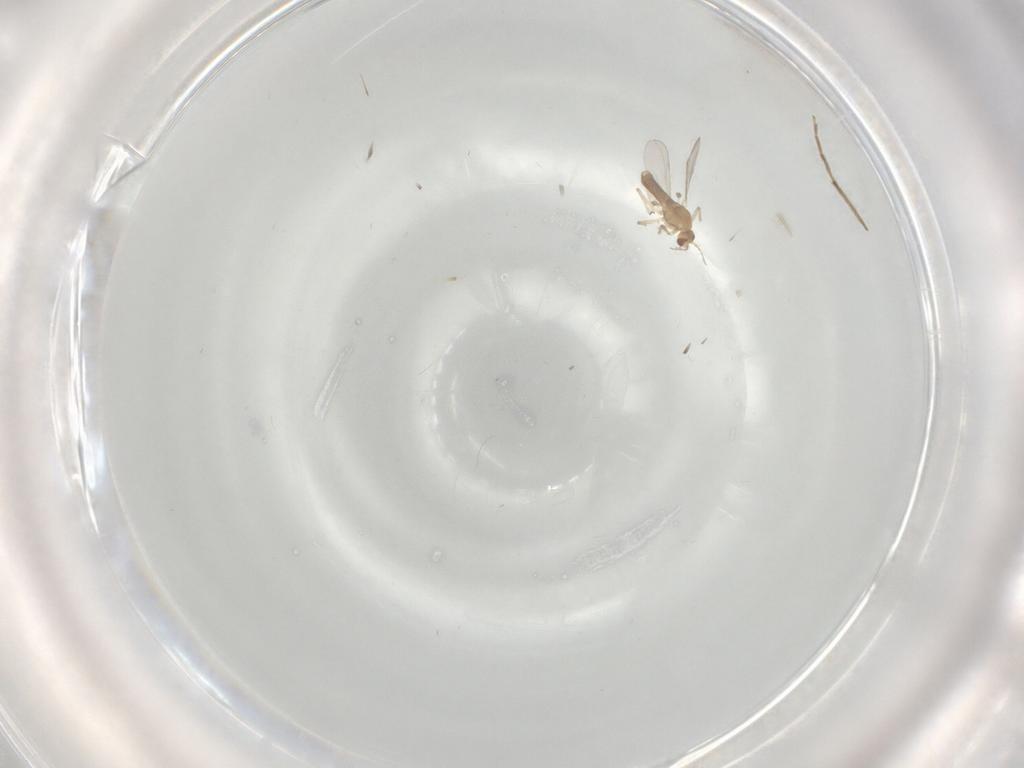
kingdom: Animalia
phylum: Arthropoda
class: Insecta
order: Diptera
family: Chironomidae
